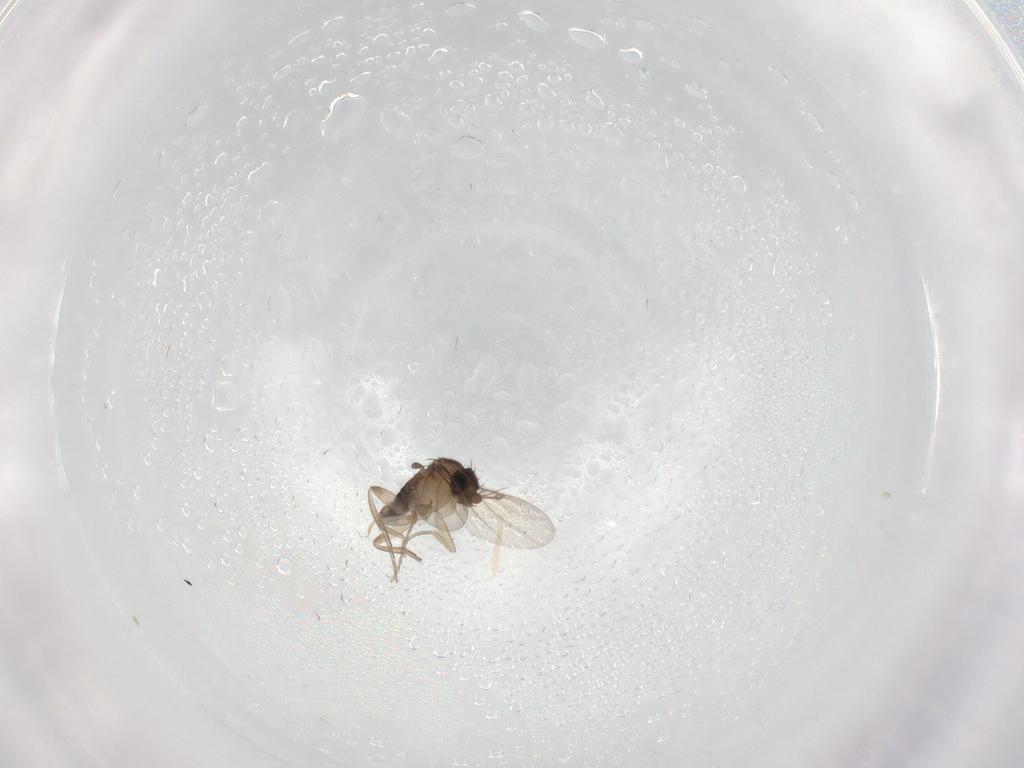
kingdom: Animalia
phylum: Arthropoda
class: Insecta
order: Diptera
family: Phoridae
